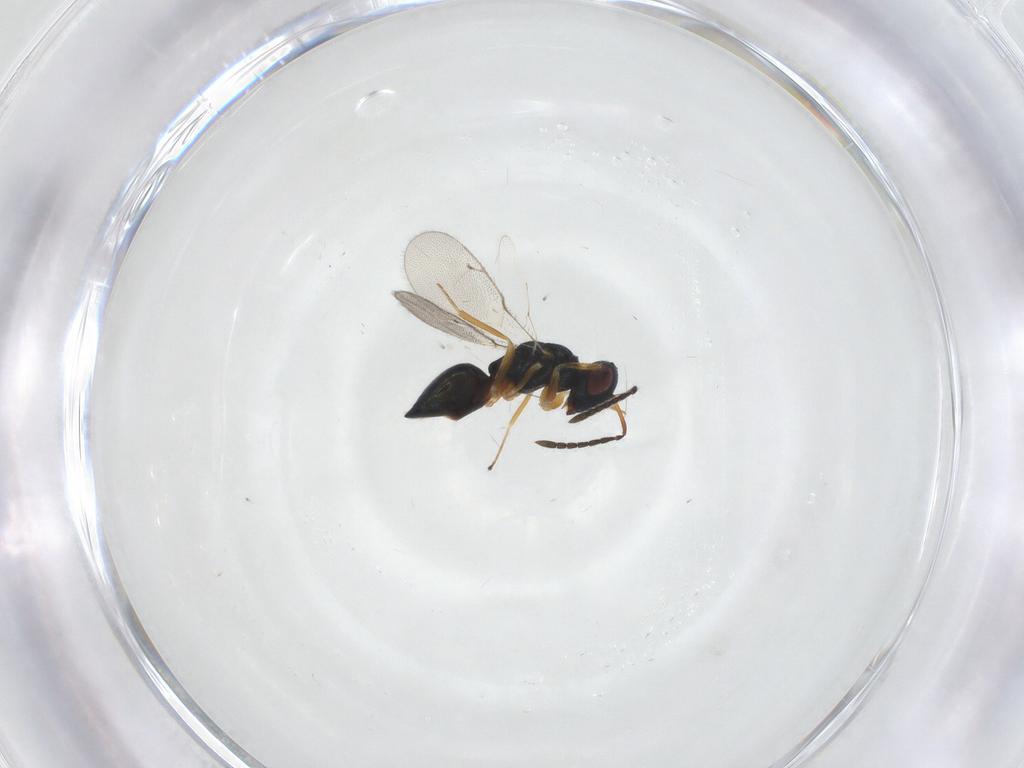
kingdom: Animalia
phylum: Arthropoda
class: Insecta
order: Hymenoptera
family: Pteromalidae
